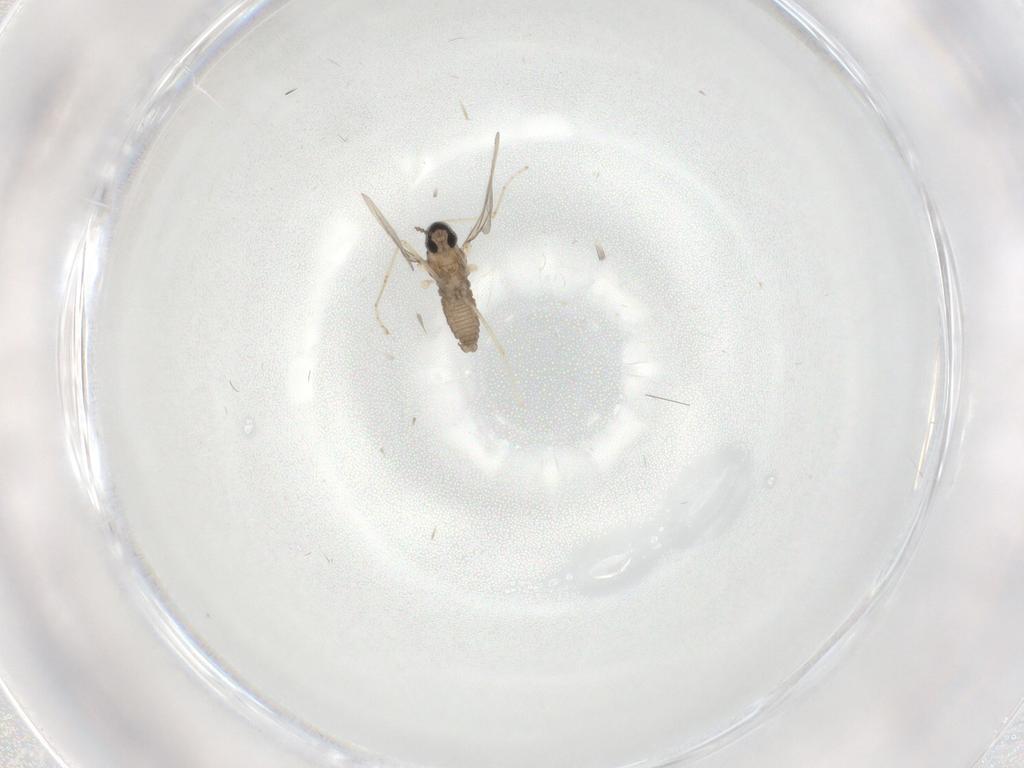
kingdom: Animalia
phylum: Arthropoda
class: Insecta
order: Diptera
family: Cecidomyiidae
